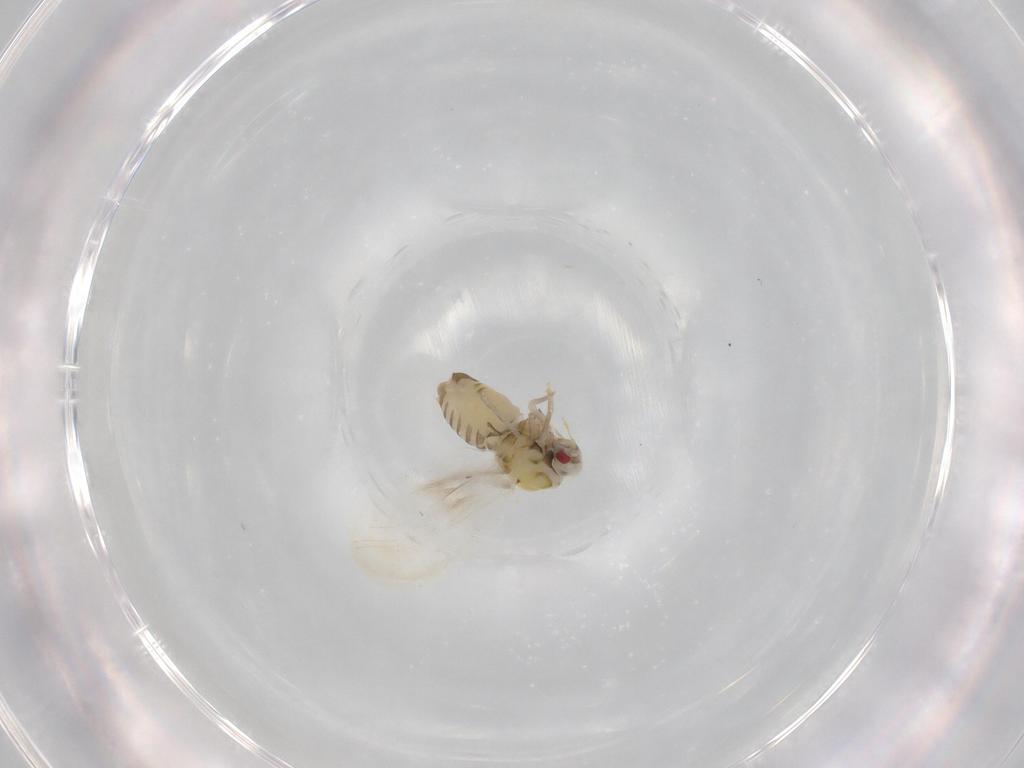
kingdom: Animalia
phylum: Arthropoda
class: Insecta
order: Hemiptera
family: Aleyrodidae
